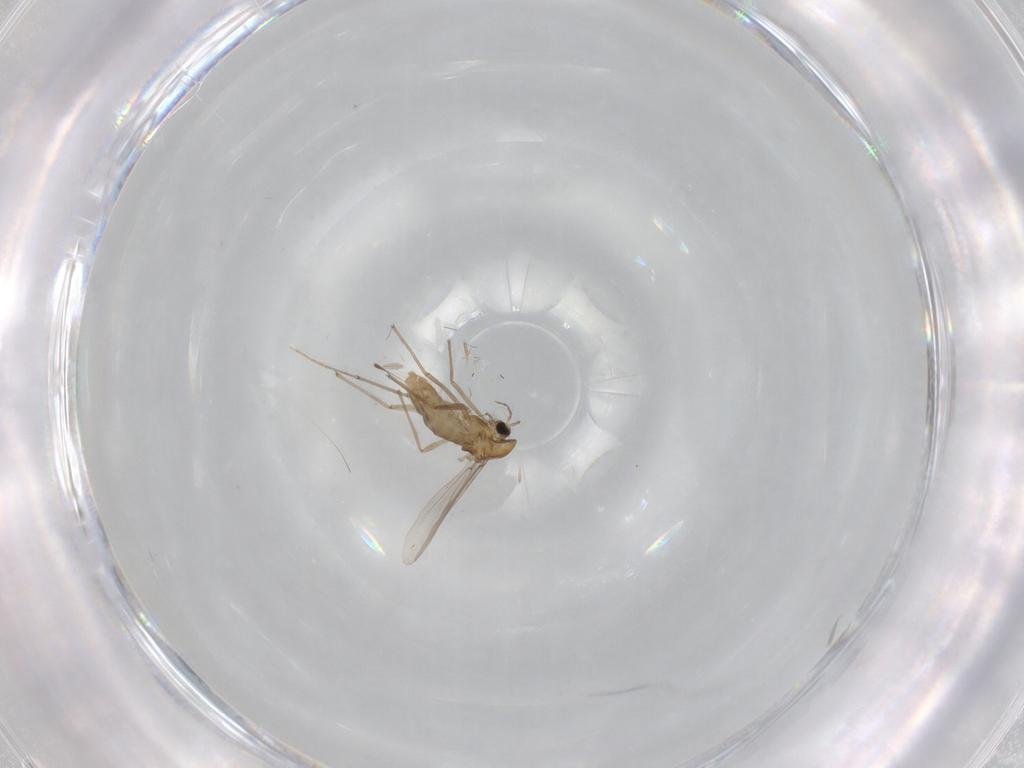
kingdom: Animalia
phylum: Arthropoda
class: Insecta
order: Diptera
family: Chironomidae
